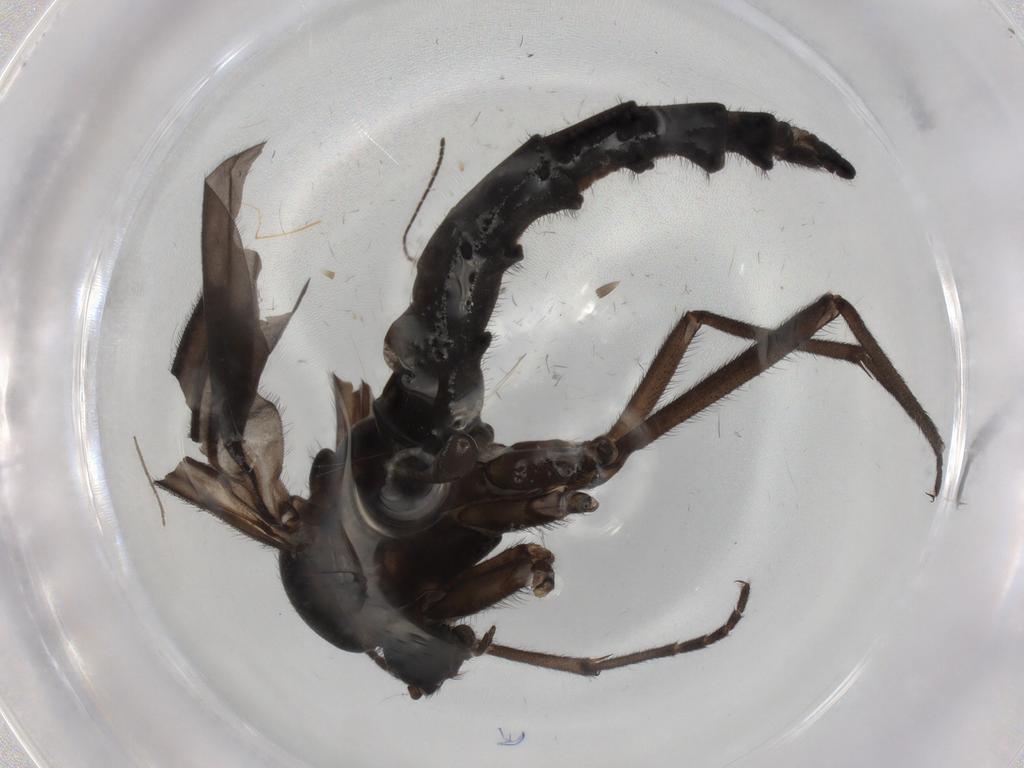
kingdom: Animalia
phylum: Arthropoda
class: Insecta
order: Diptera
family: Sciaridae
